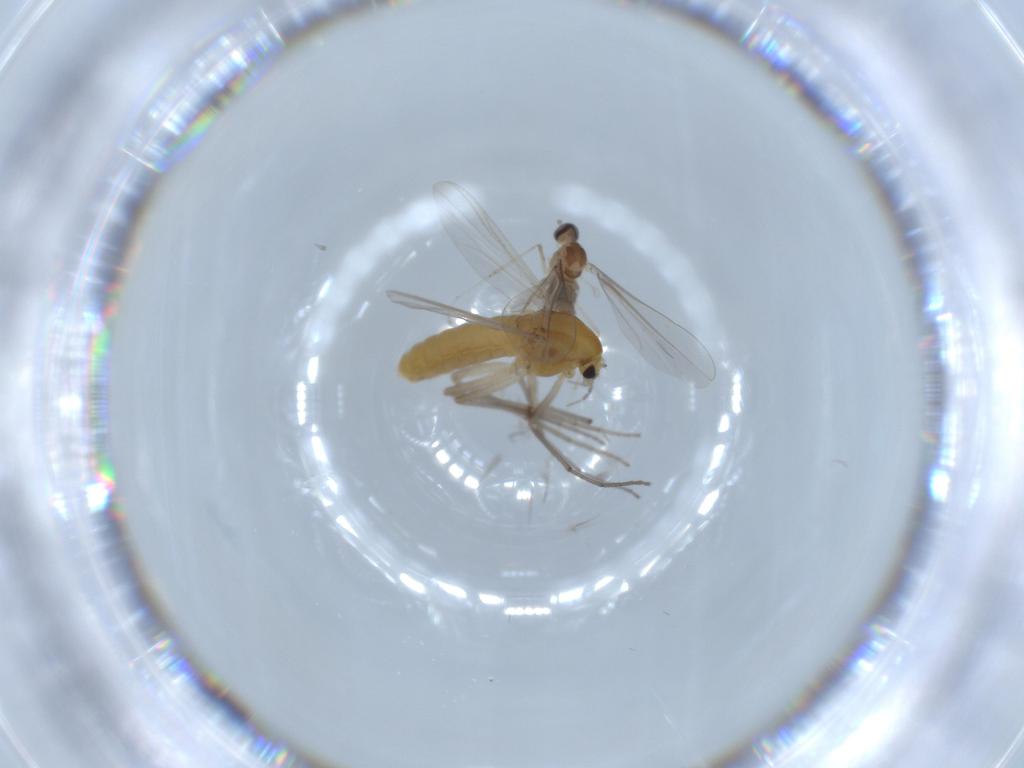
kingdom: Animalia
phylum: Arthropoda
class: Insecta
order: Diptera
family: Chironomidae
